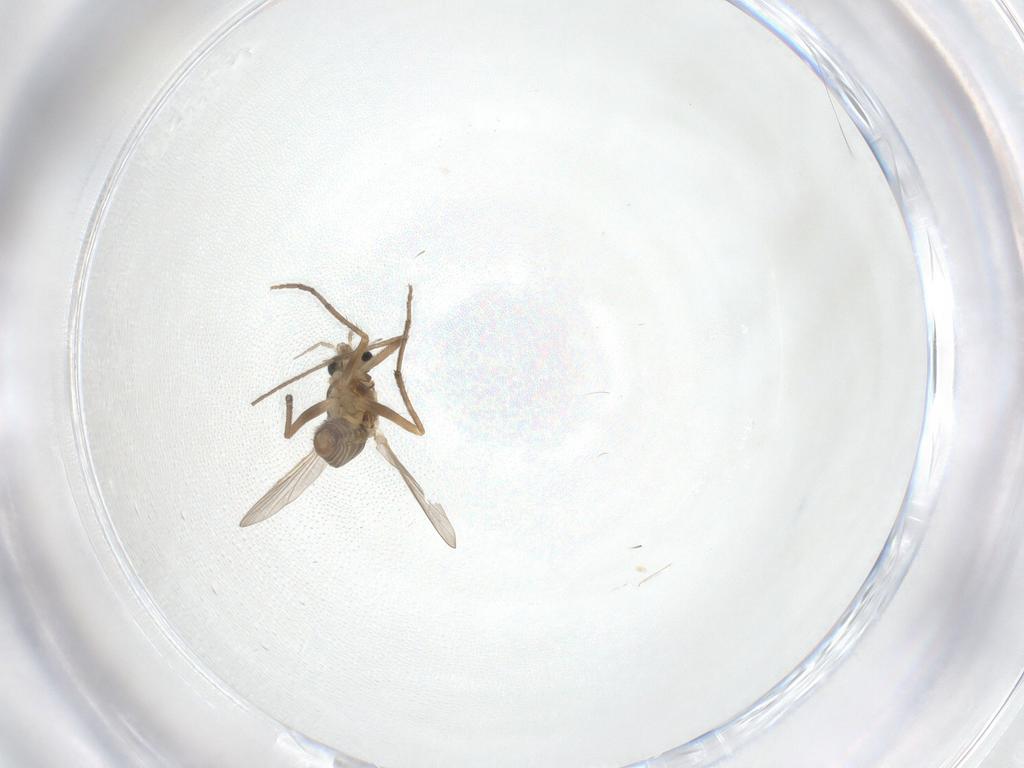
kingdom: Animalia
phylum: Arthropoda
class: Insecta
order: Diptera
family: Chironomidae
